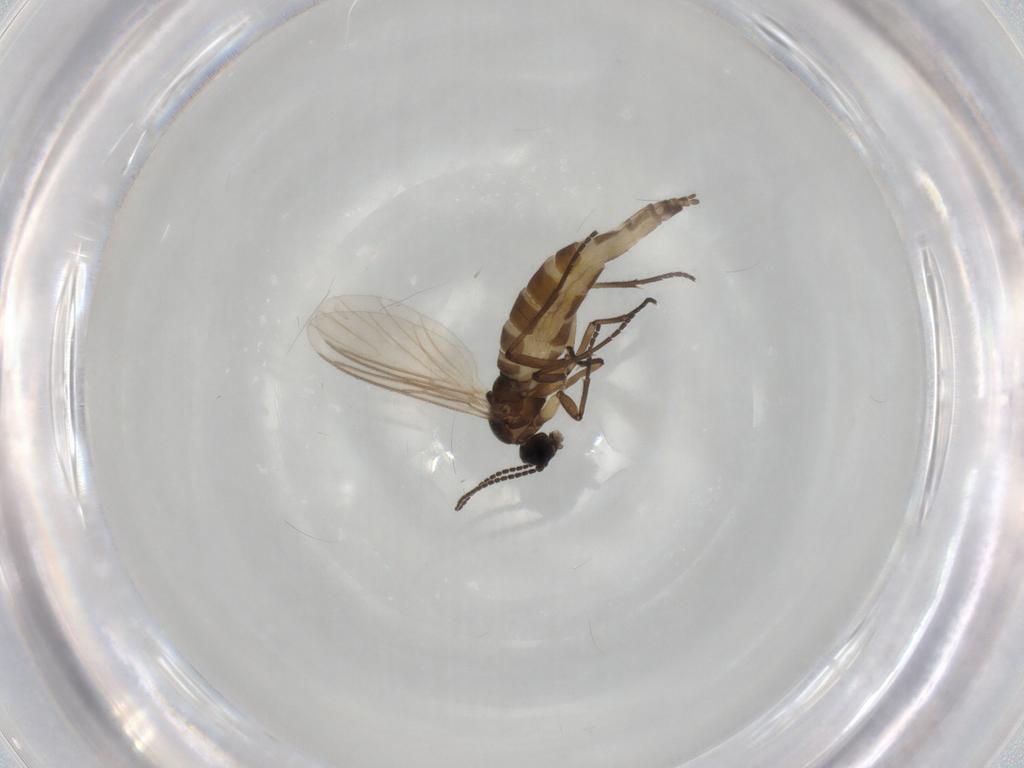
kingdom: Animalia
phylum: Arthropoda
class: Insecta
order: Diptera
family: Sciaridae
